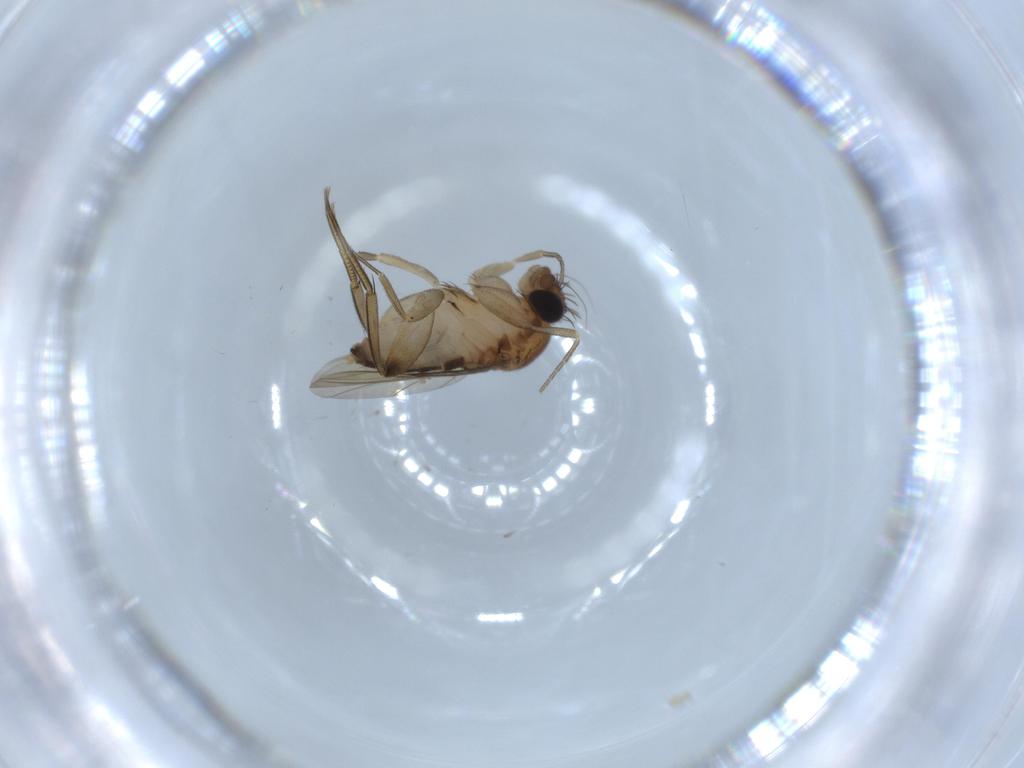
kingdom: Animalia
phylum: Arthropoda
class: Insecta
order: Diptera
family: Phoridae
